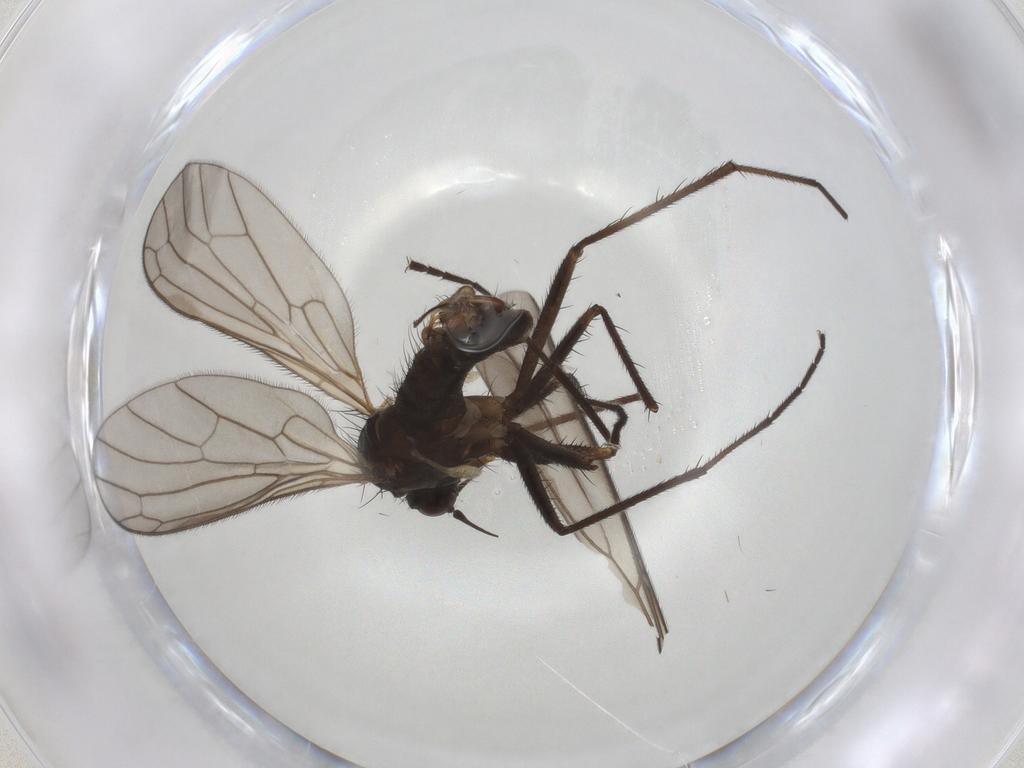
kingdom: Animalia
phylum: Arthropoda
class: Insecta
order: Diptera
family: Empididae
